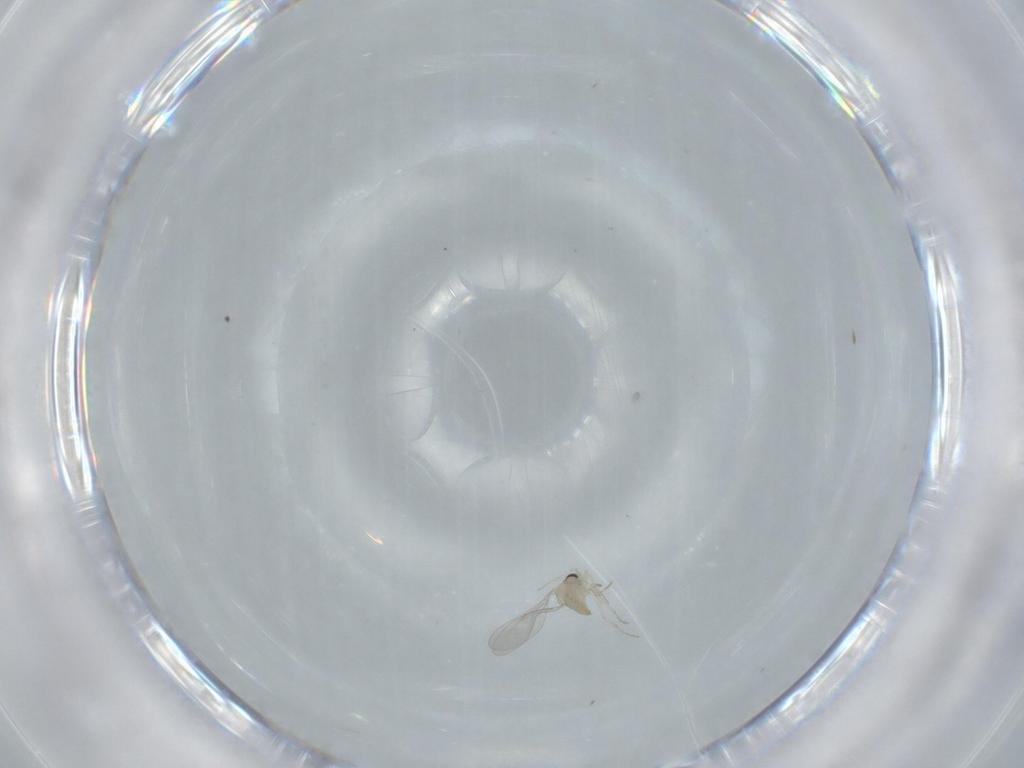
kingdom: Animalia
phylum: Arthropoda
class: Insecta
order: Diptera
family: Cecidomyiidae
